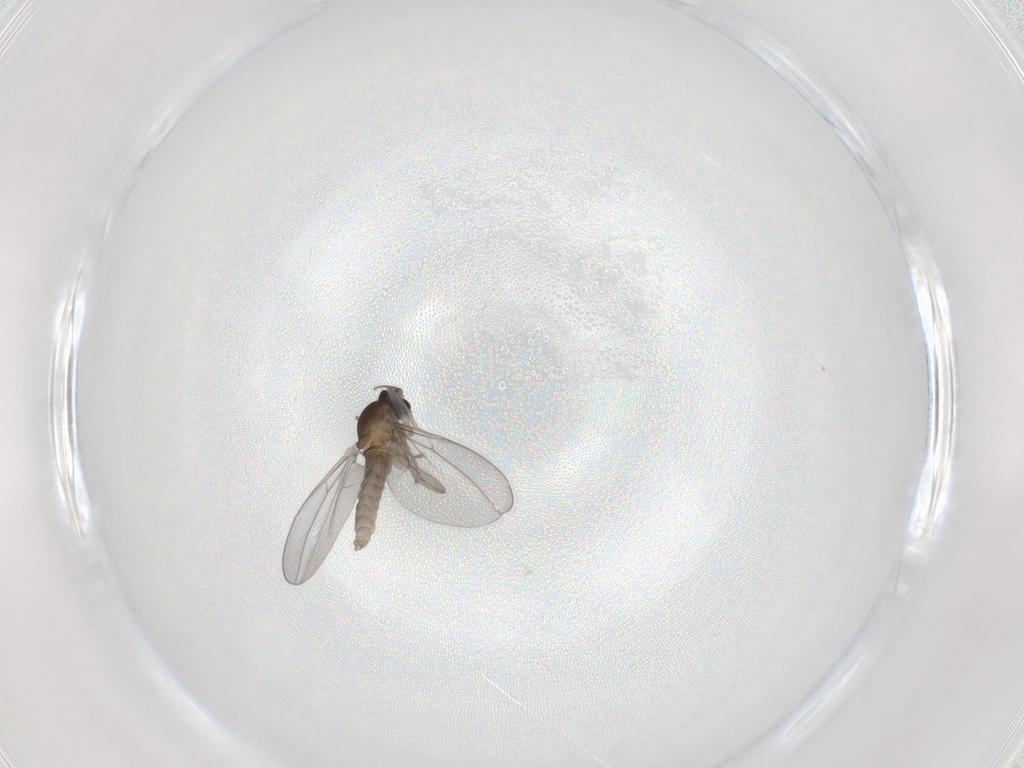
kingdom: Animalia
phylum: Arthropoda
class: Insecta
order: Diptera
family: Limoniidae
